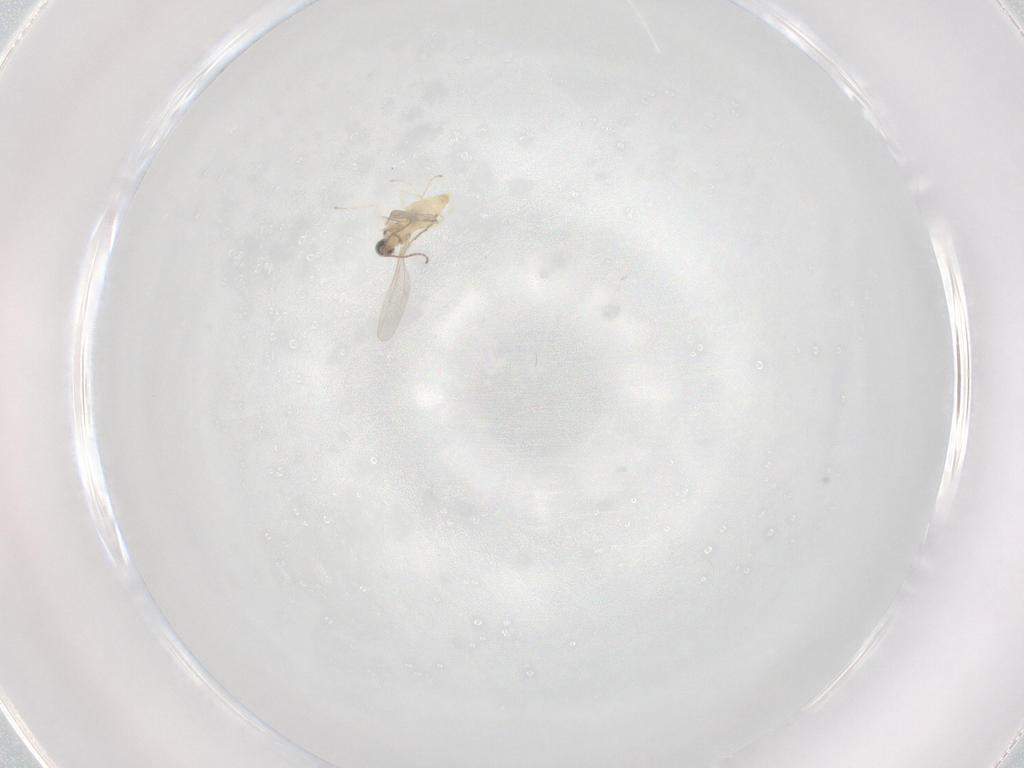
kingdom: Animalia
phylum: Arthropoda
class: Insecta
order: Diptera
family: Cecidomyiidae
